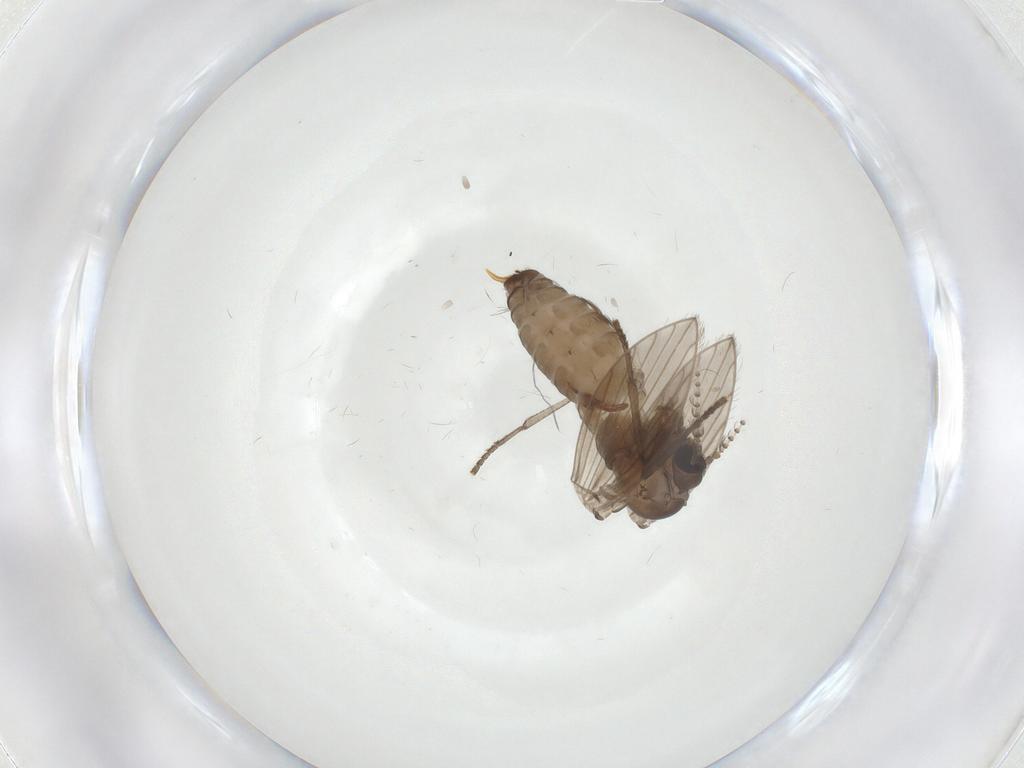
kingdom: Animalia
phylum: Arthropoda
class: Insecta
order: Diptera
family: Psychodidae
